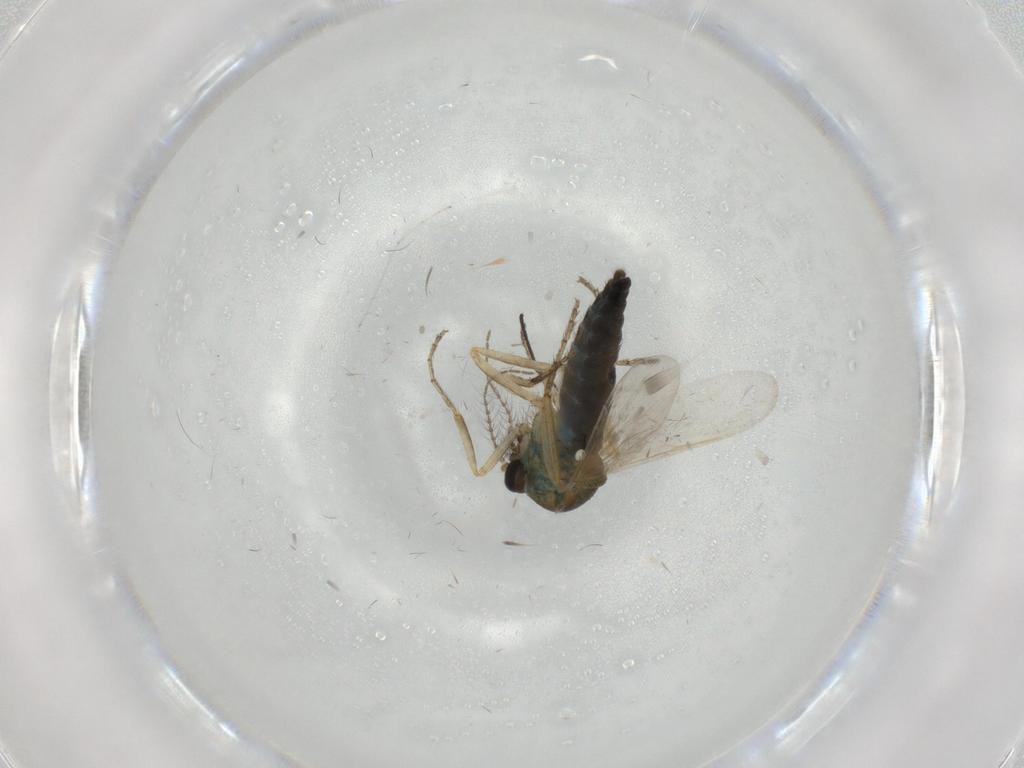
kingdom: Animalia
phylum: Arthropoda
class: Insecta
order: Diptera
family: Ceratopogonidae
